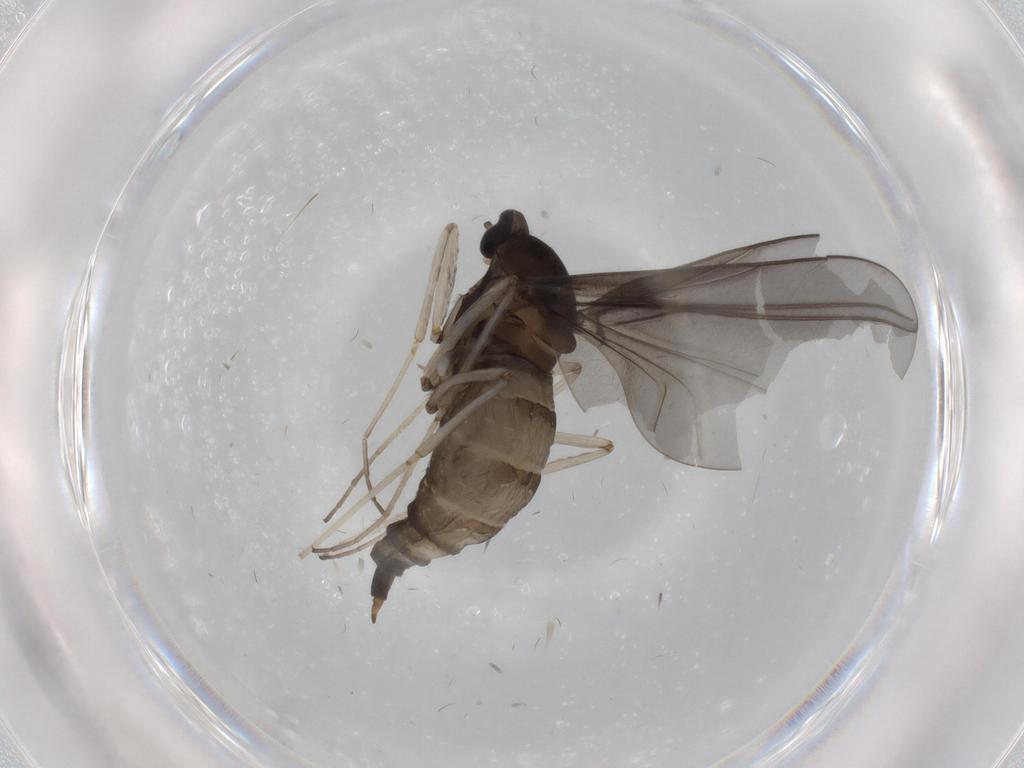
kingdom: Animalia
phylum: Arthropoda
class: Insecta
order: Diptera
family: Cecidomyiidae
